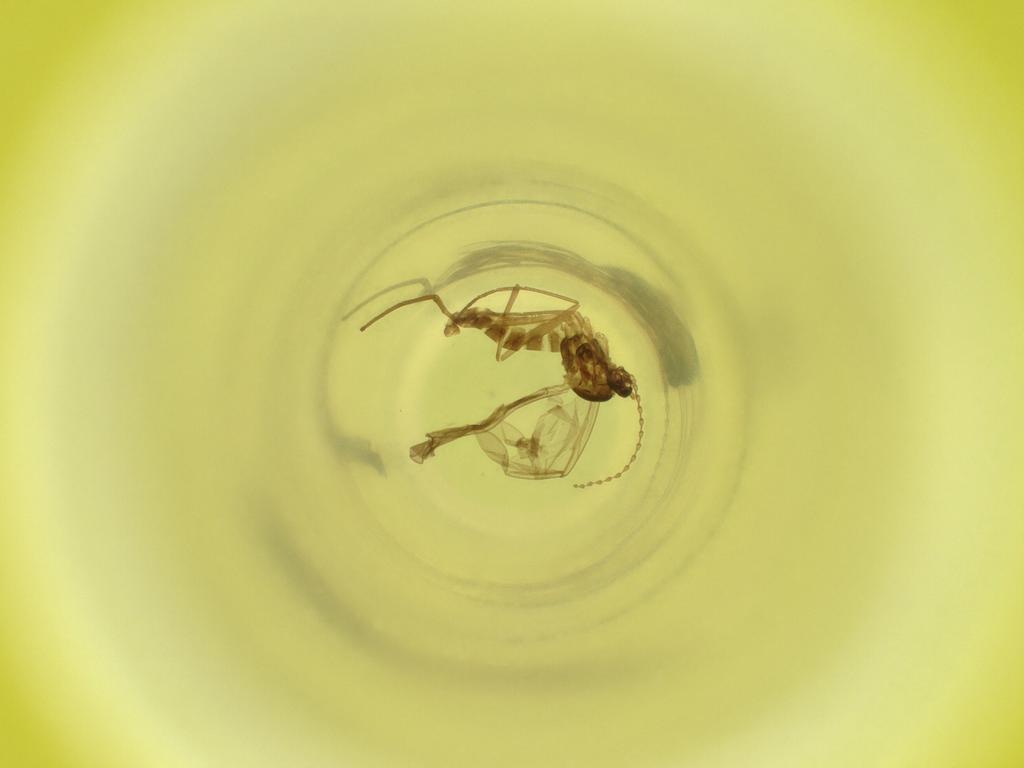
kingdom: Animalia
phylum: Arthropoda
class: Insecta
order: Diptera
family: Cecidomyiidae
